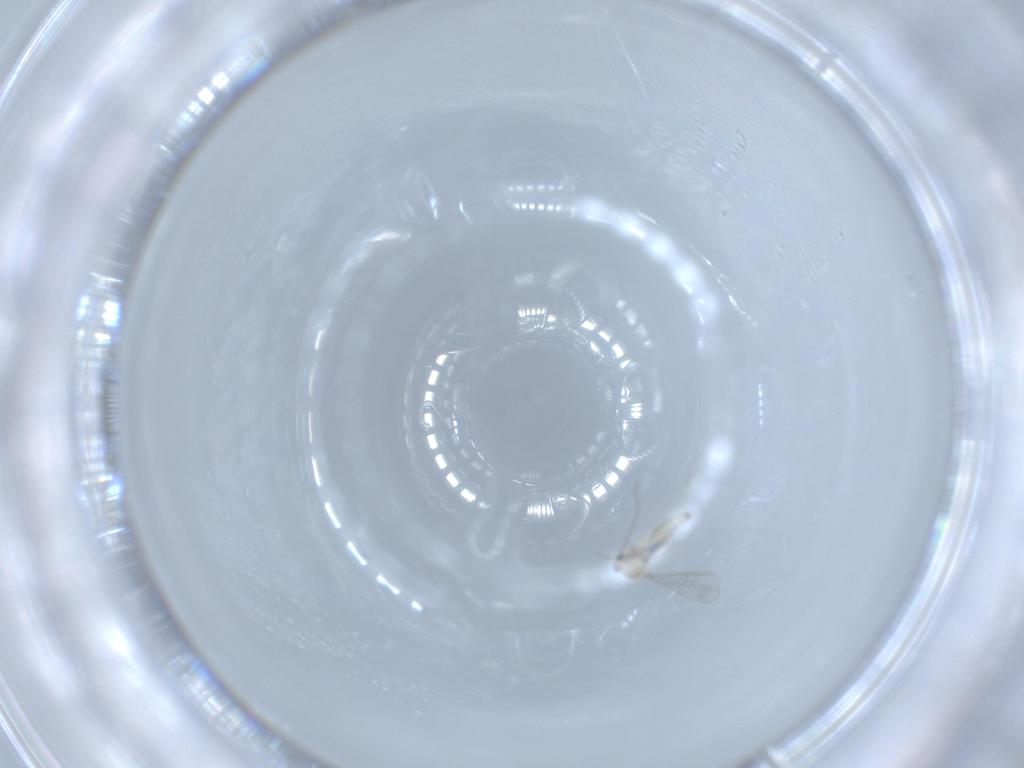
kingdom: Animalia
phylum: Arthropoda
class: Insecta
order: Diptera
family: Cecidomyiidae
